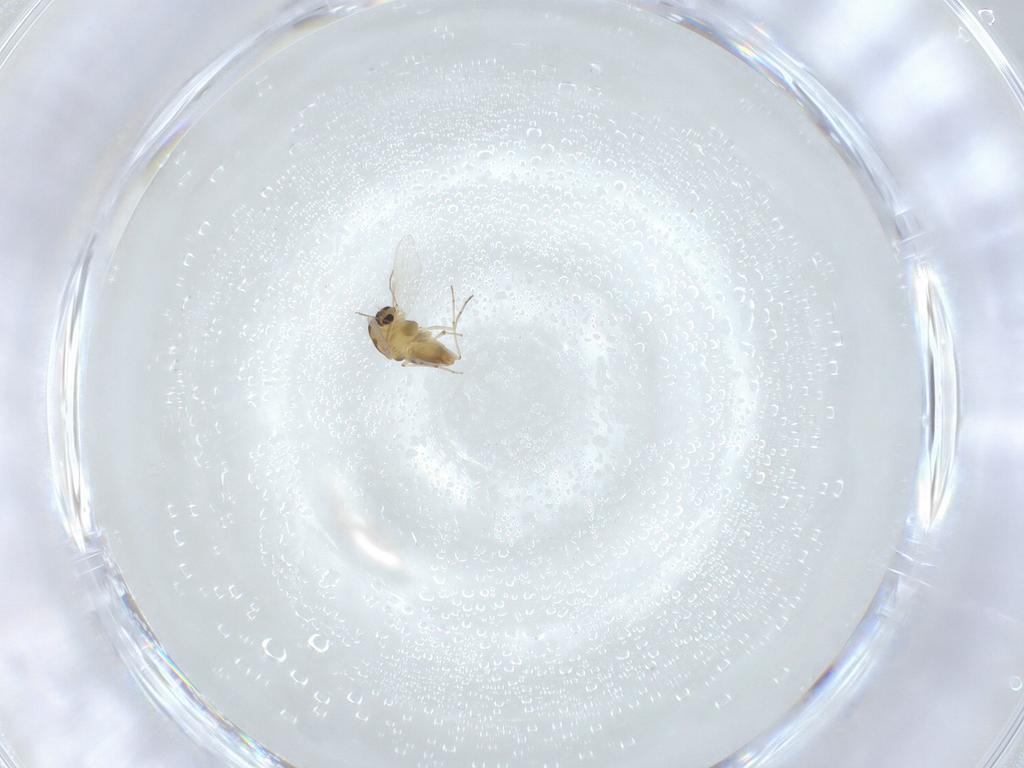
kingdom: Animalia
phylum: Arthropoda
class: Insecta
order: Diptera
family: Chironomidae
